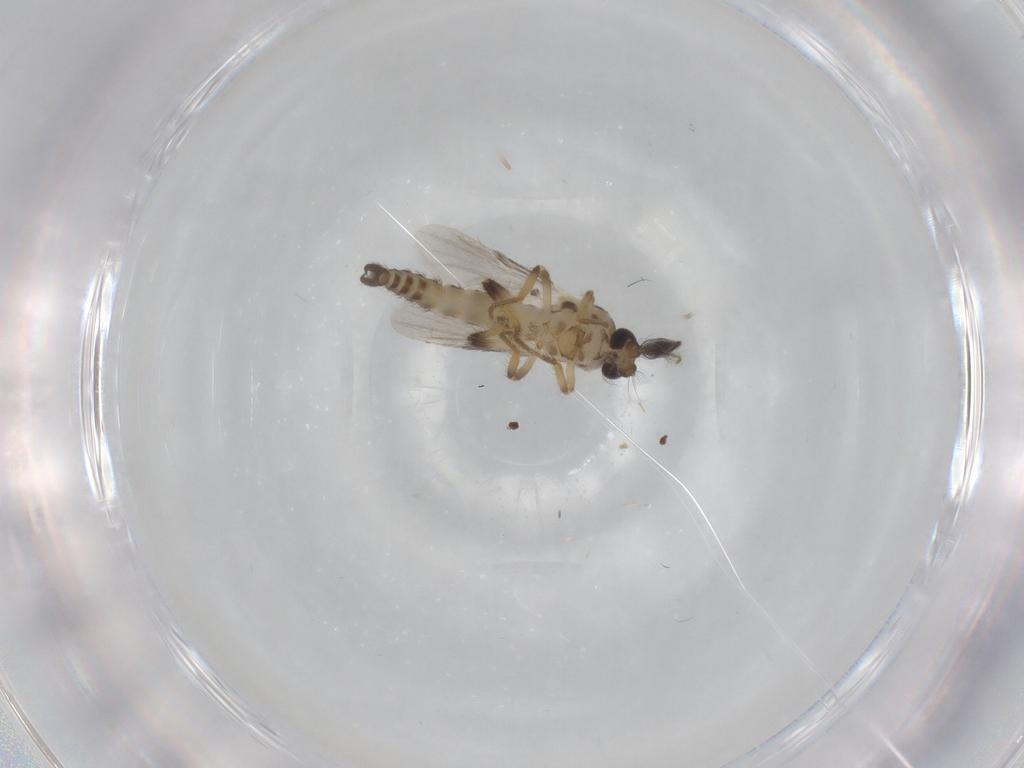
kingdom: Animalia
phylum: Arthropoda
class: Insecta
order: Diptera
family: Ceratopogonidae
